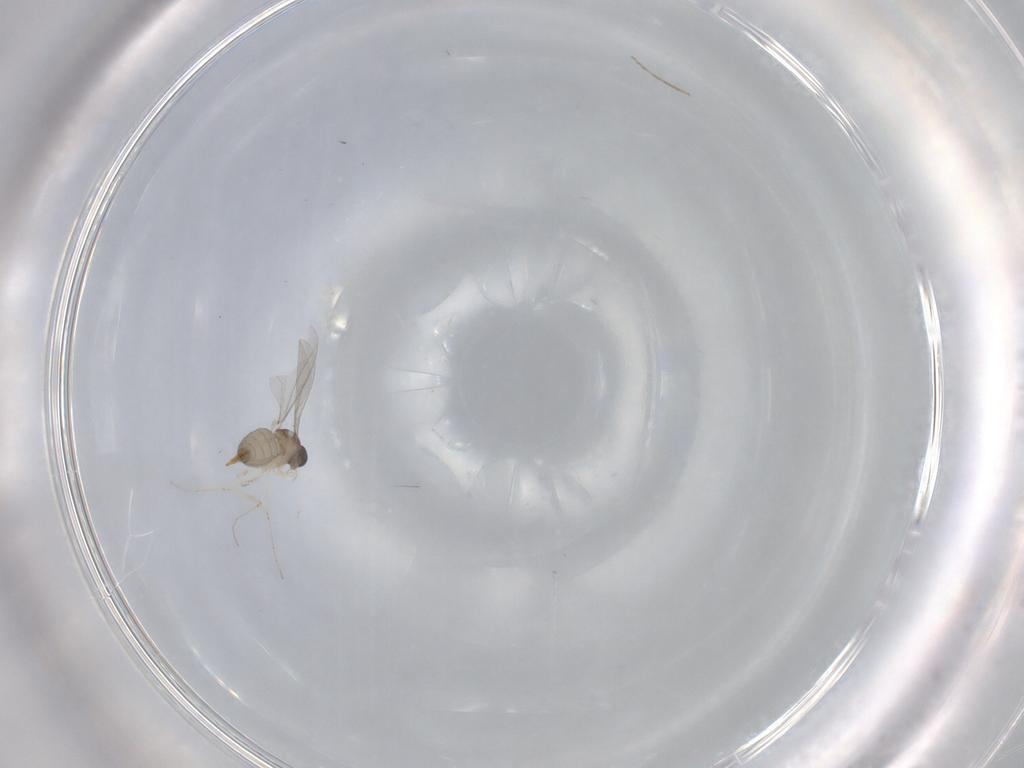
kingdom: Animalia
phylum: Arthropoda
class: Insecta
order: Diptera
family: Cecidomyiidae
